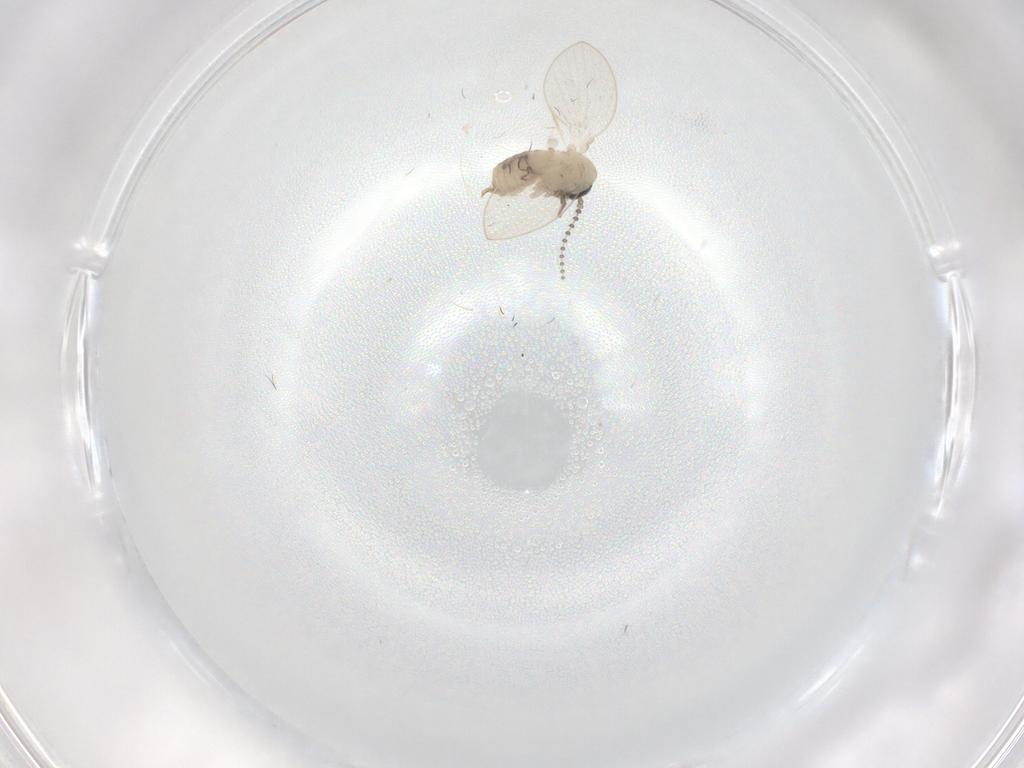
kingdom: Animalia
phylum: Arthropoda
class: Insecta
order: Diptera
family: Psychodidae
